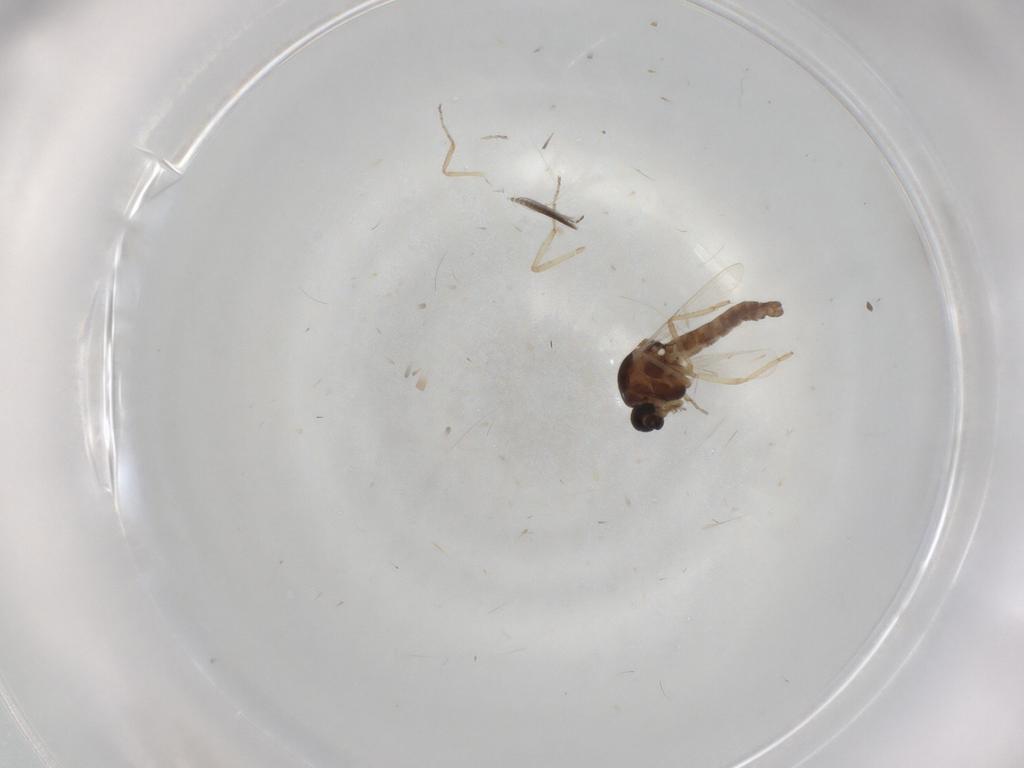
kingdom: Animalia
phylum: Arthropoda
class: Insecta
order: Diptera
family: Ceratopogonidae
